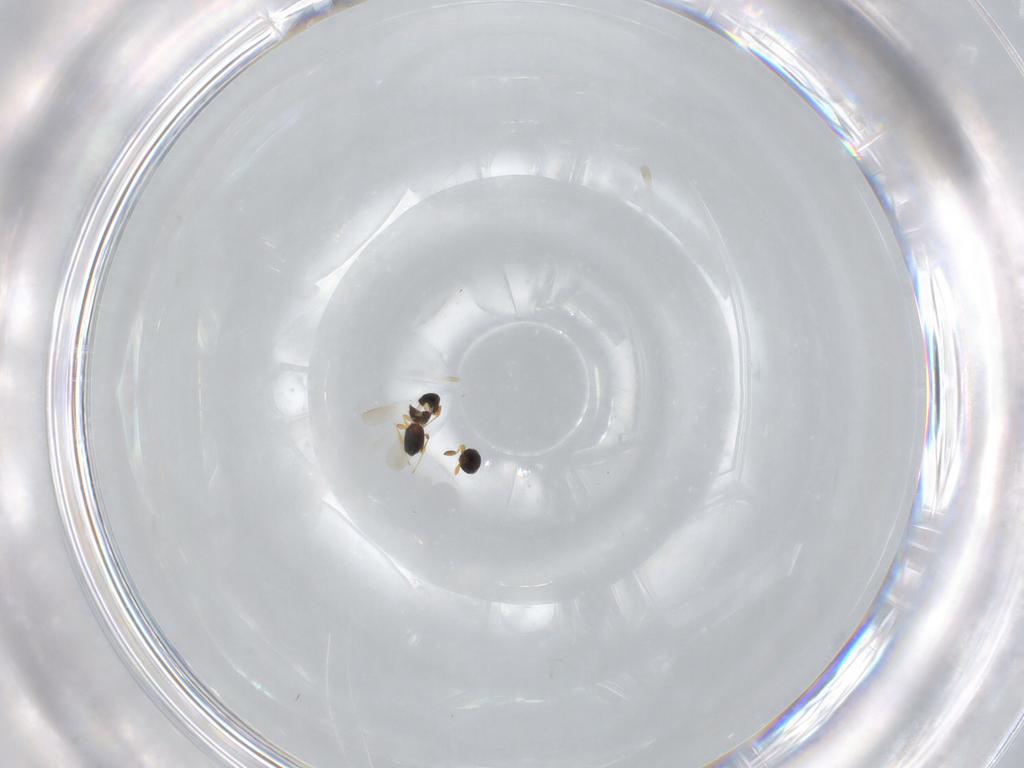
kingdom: Animalia
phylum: Arthropoda
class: Insecta
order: Hymenoptera
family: Platygastridae
